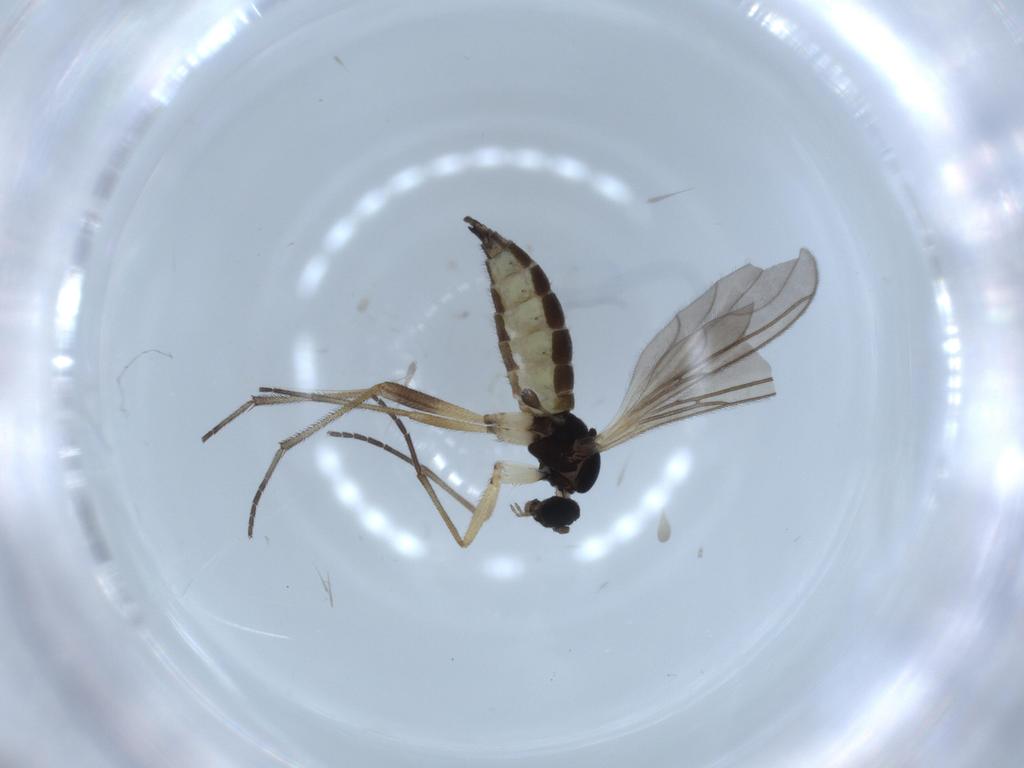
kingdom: Animalia
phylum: Arthropoda
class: Insecta
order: Diptera
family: Sciaridae
